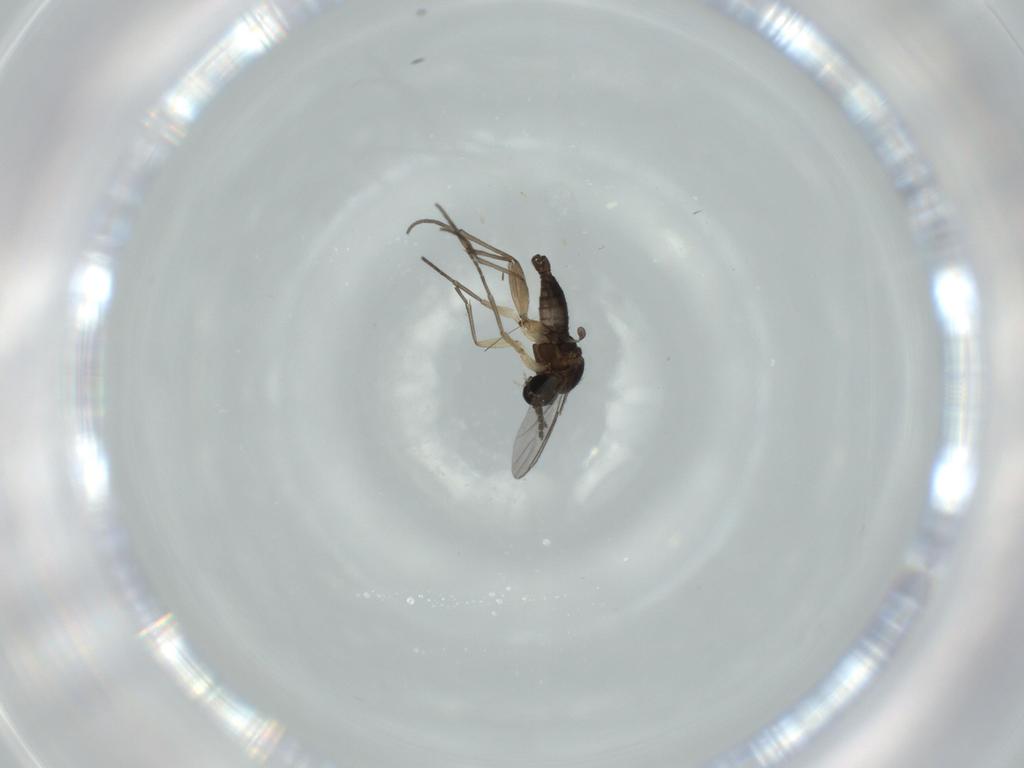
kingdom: Animalia
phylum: Arthropoda
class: Insecta
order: Diptera
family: Sciaridae
